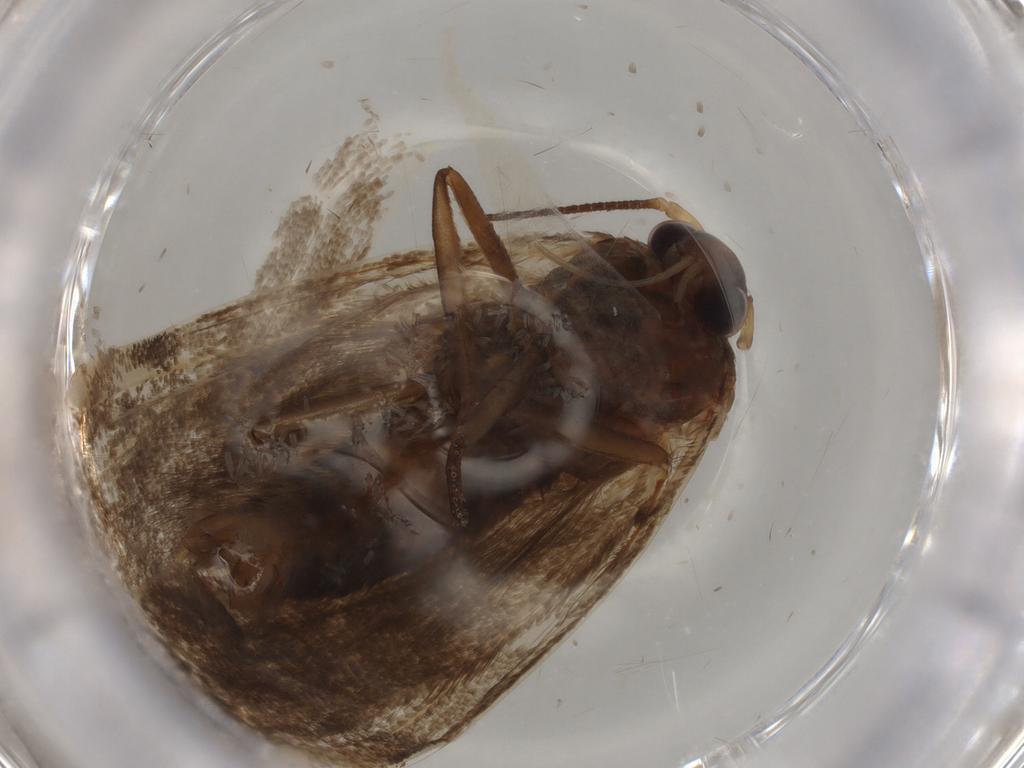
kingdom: Animalia
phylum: Arthropoda
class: Insecta
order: Lepidoptera
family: Blastobasidae
